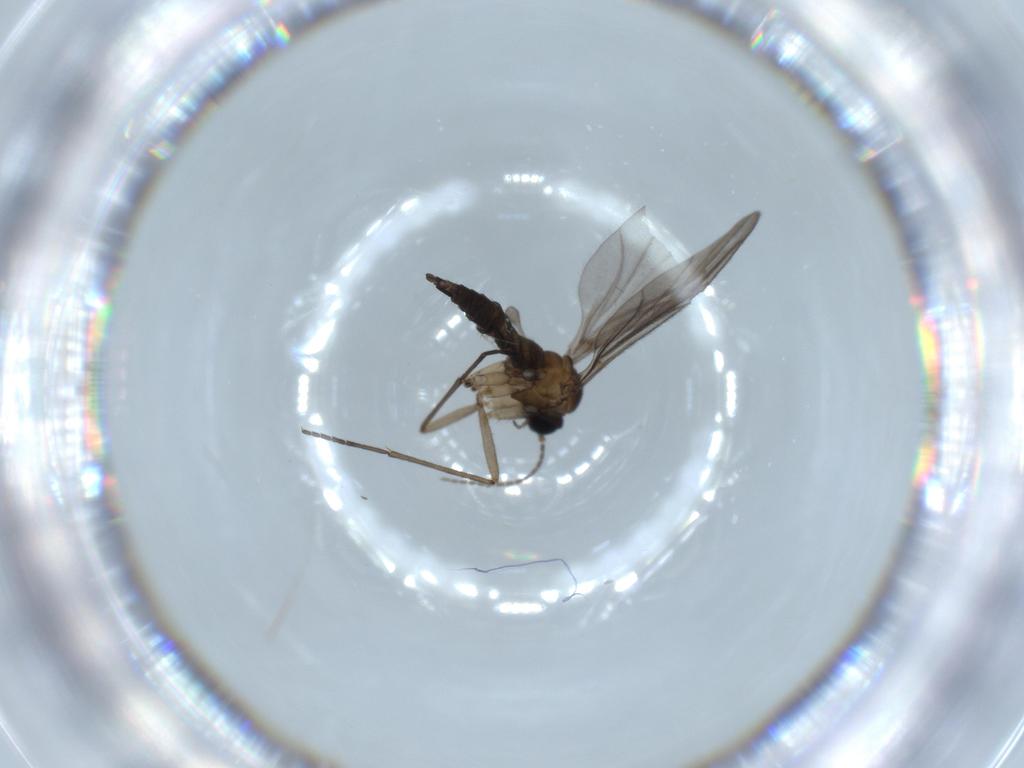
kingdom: Animalia
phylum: Arthropoda
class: Insecta
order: Diptera
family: Sciaridae
